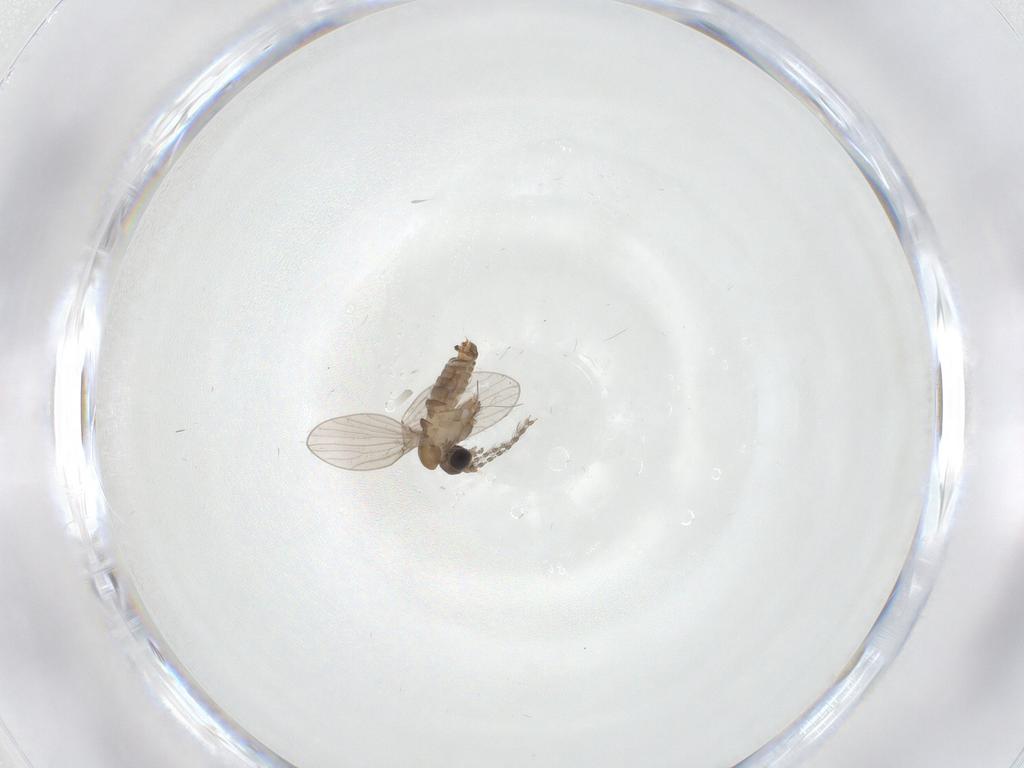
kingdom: Animalia
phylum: Arthropoda
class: Insecta
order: Diptera
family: Psychodidae
